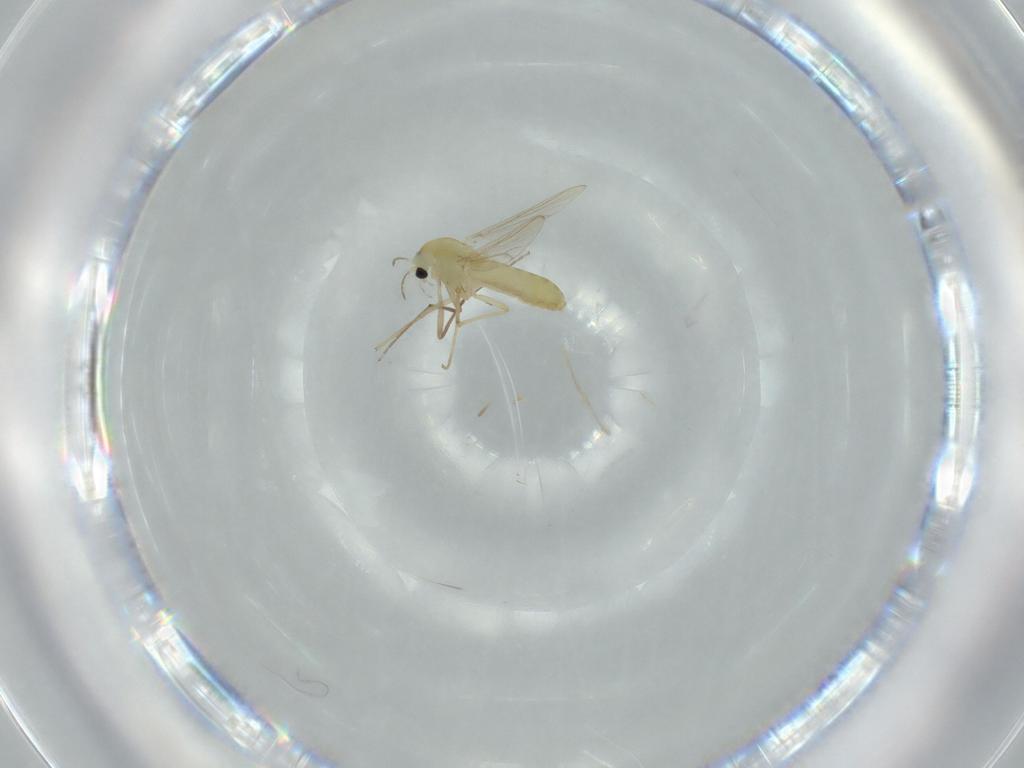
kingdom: Animalia
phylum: Arthropoda
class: Insecta
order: Diptera
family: Chironomidae
